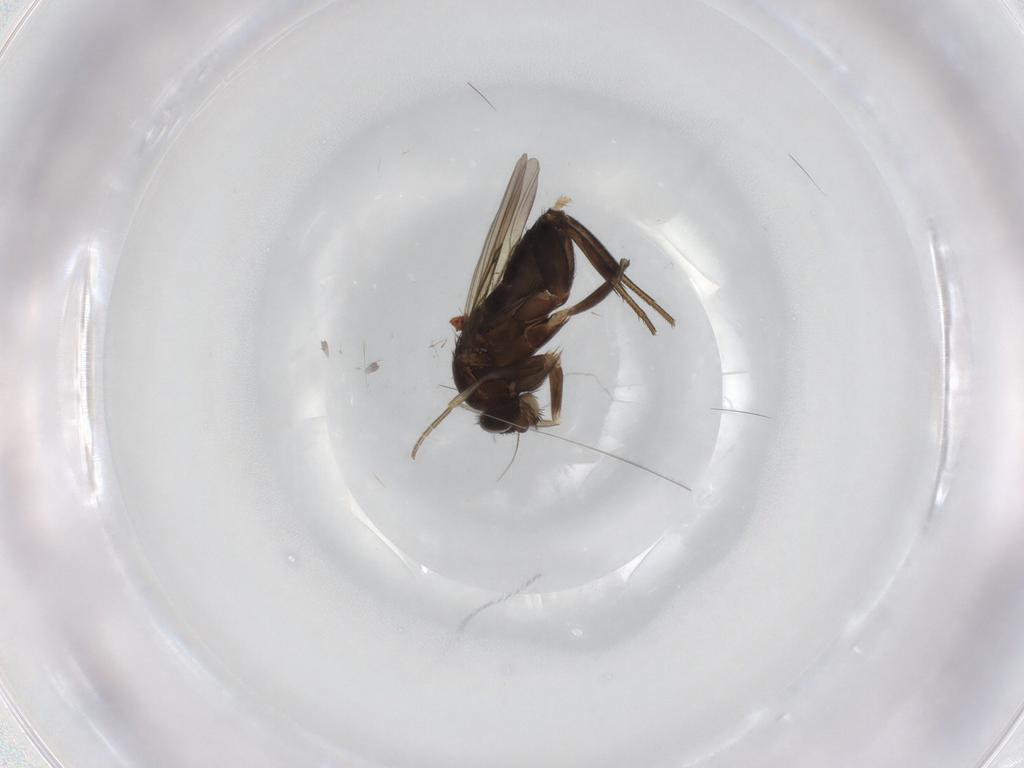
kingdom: Animalia
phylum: Arthropoda
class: Insecta
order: Diptera
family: Phoridae
